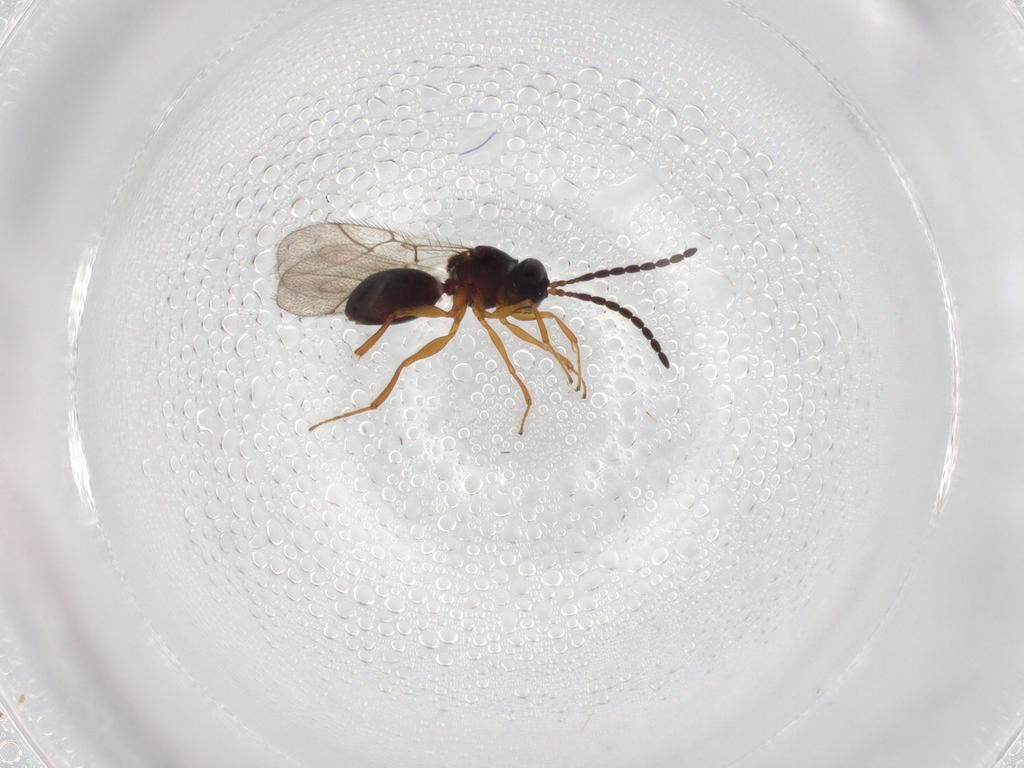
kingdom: Animalia
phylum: Arthropoda
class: Insecta
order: Hymenoptera
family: Figitidae
